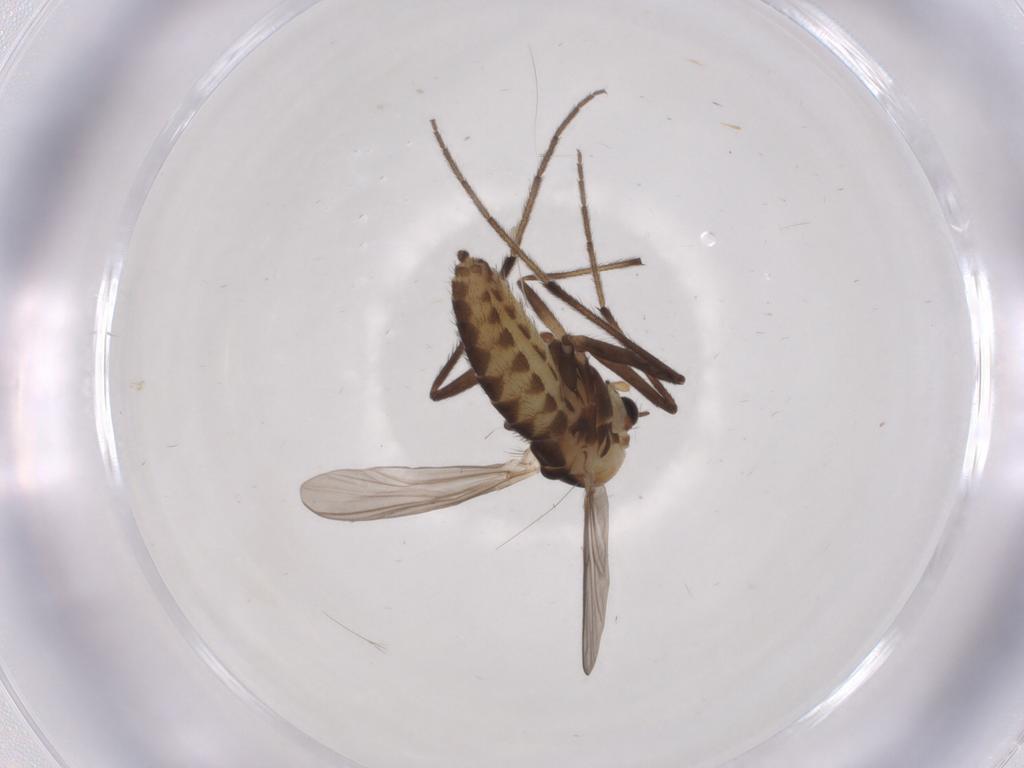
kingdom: Animalia
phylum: Arthropoda
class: Insecta
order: Diptera
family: Chironomidae
